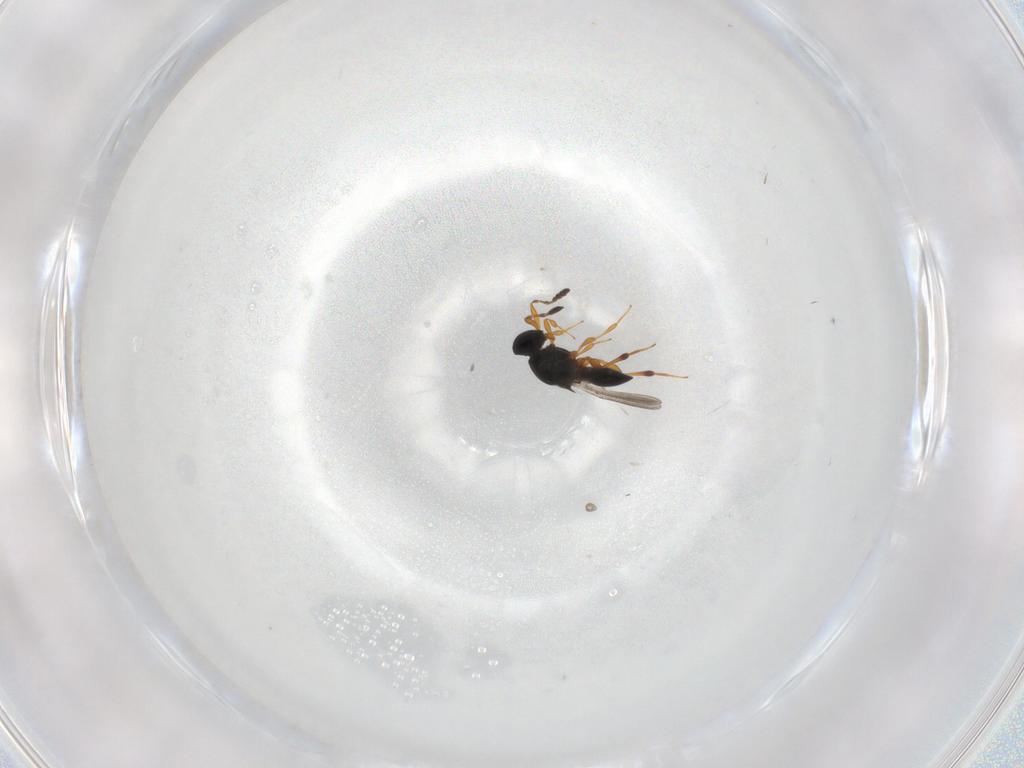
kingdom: Animalia
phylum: Arthropoda
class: Insecta
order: Hymenoptera
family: Platygastridae
